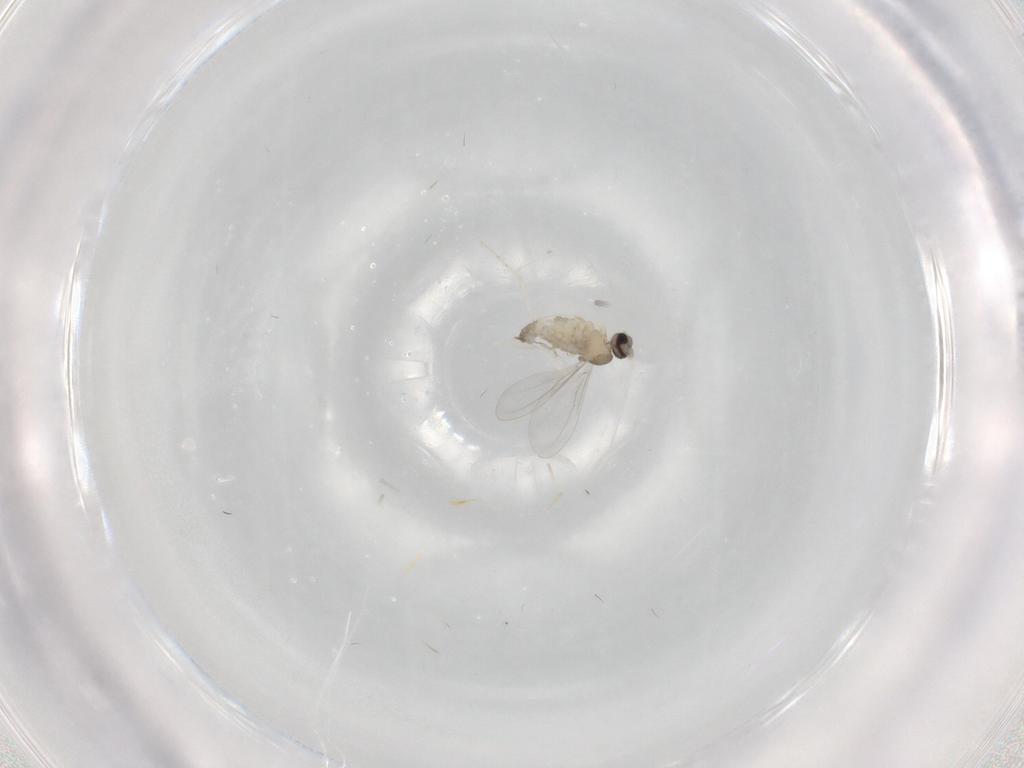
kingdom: Animalia
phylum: Arthropoda
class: Insecta
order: Diptera
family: Cecidomyiidae
